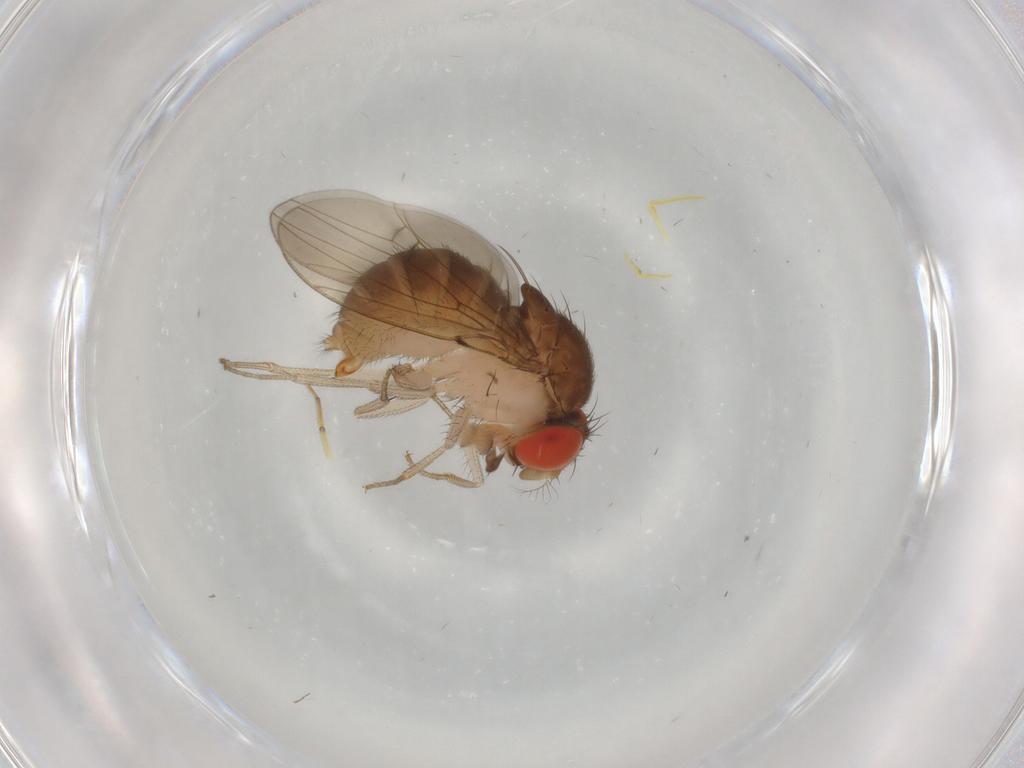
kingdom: Animalia
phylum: Arthropoda
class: Insecta
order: Diptera
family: Drosophilidae
